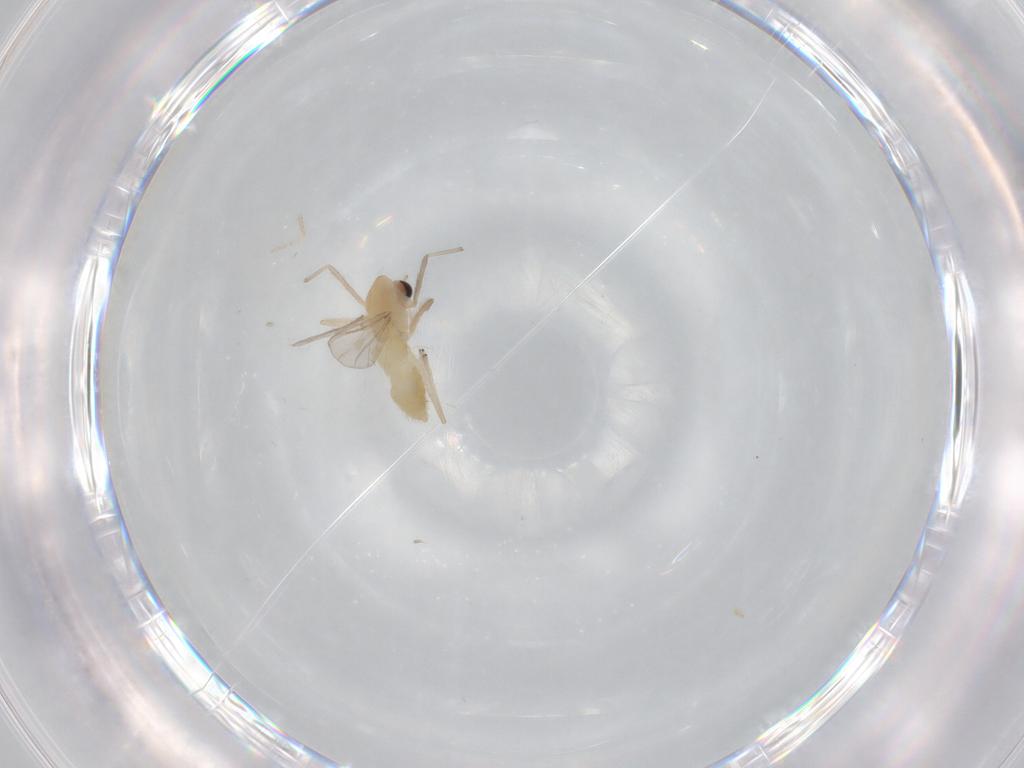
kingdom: Animalia
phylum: Arthropoda
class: Insecta
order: Diptera
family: Chironomidae
